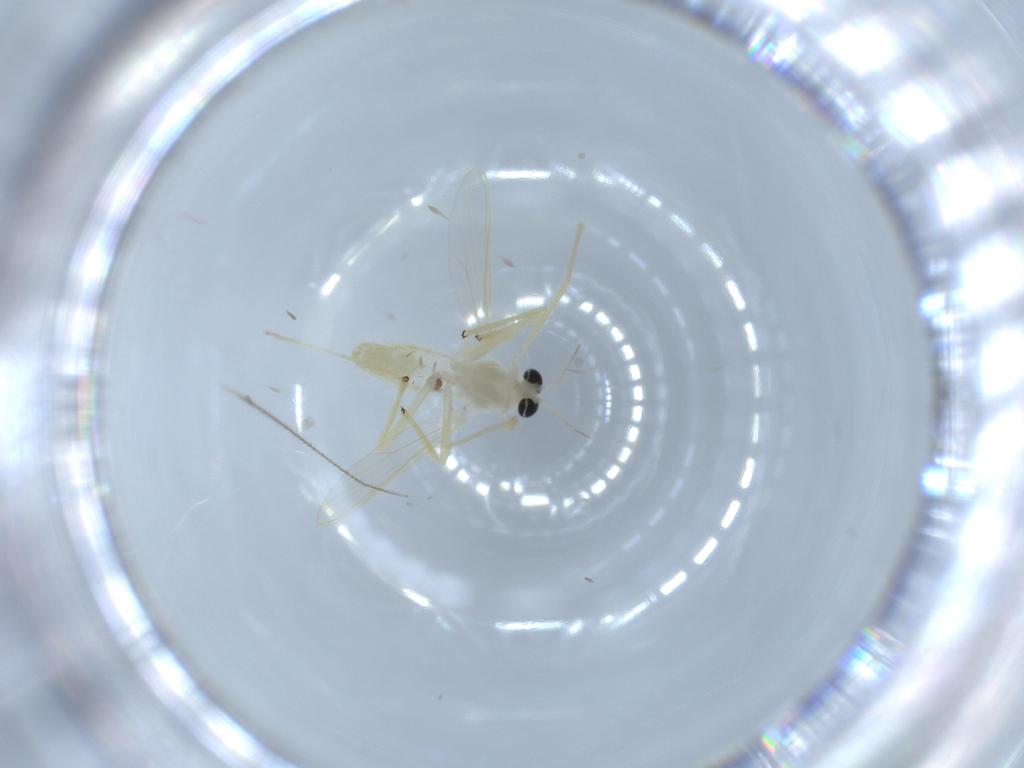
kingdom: Animalia
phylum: Arthropoda
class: Insecta
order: Diptera
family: Chironomidae
